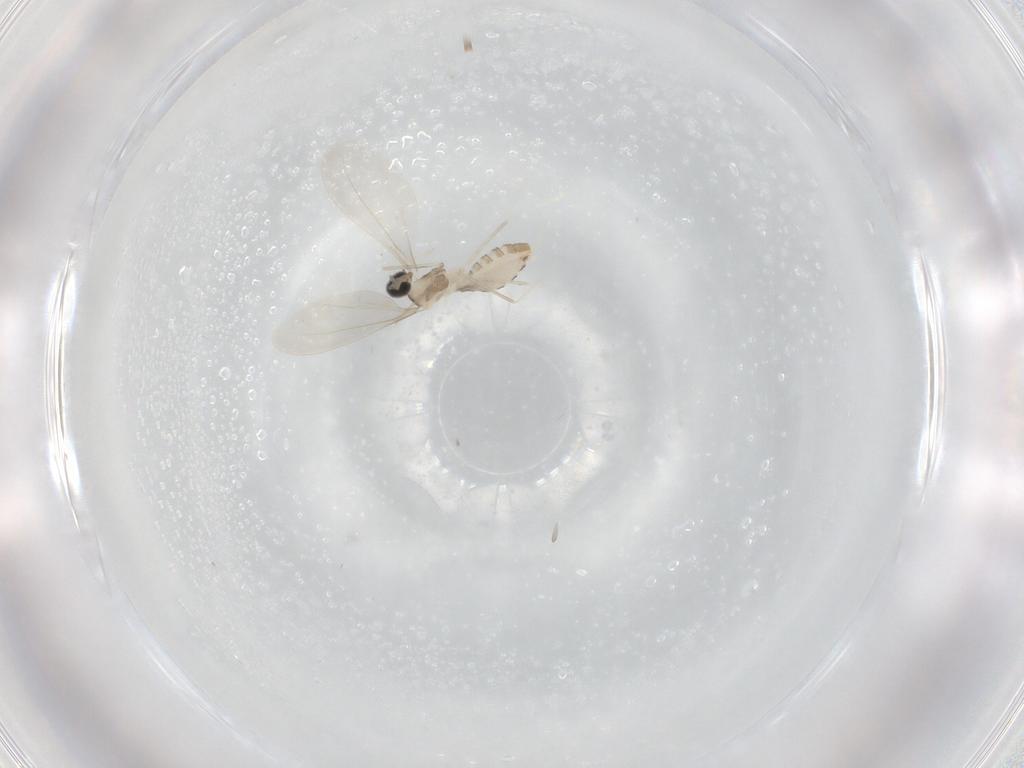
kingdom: Animalia
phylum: Arthropoda
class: Insecta
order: Diptera
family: Cecidomyiidae
